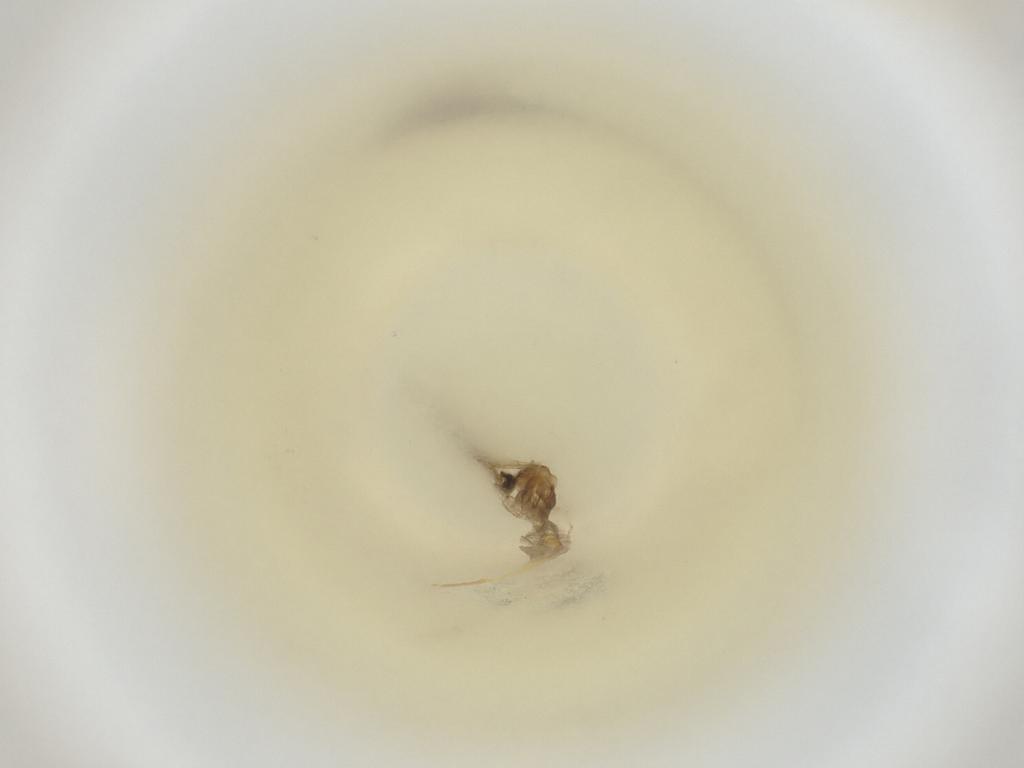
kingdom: Animalia
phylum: Arthropoda
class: Insecta
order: Diptera
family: Cecidomyiidae
